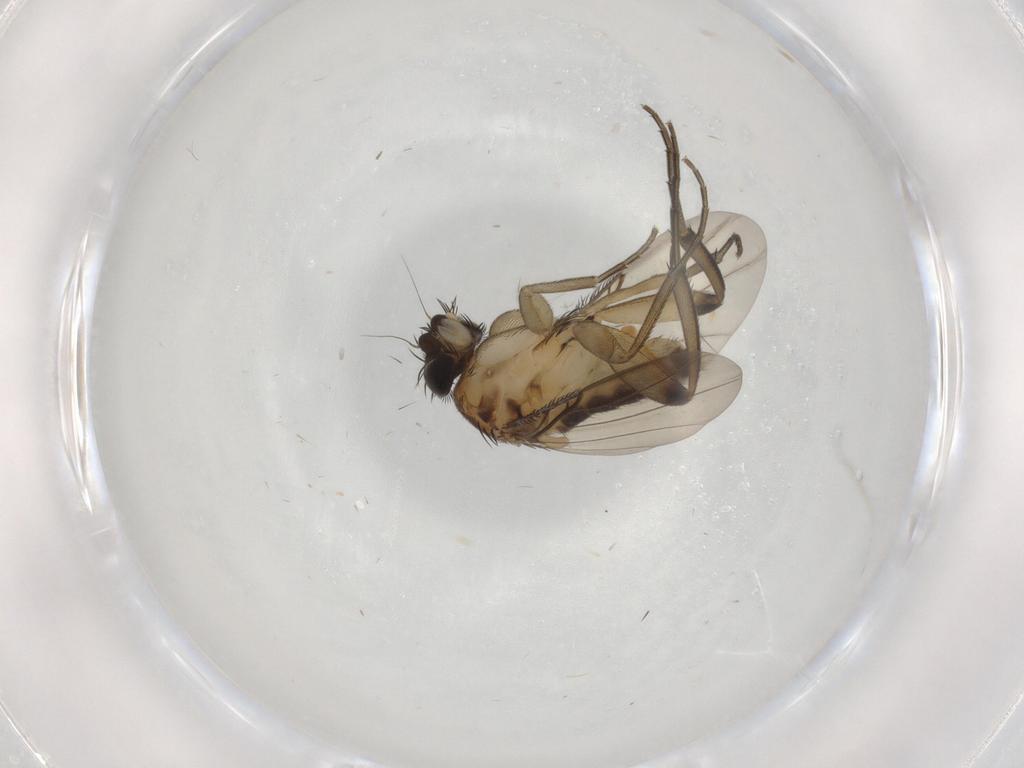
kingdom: Animalia
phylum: Arthropoda
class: Insecta
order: Diptera
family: Phoridae
